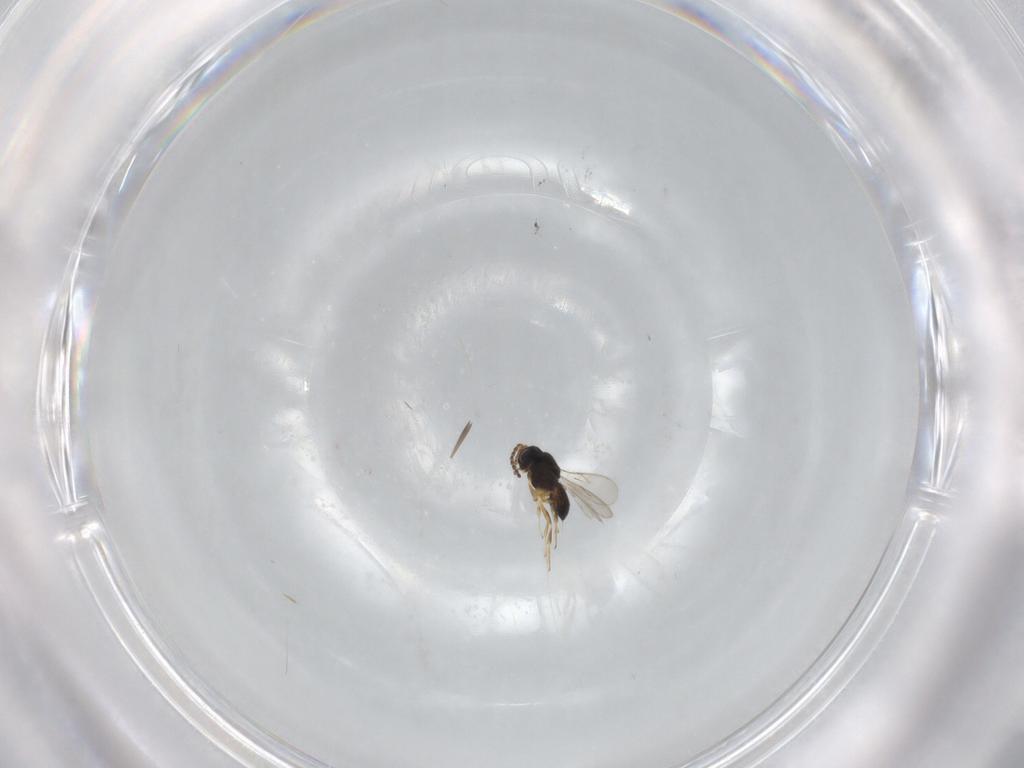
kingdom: Animalia
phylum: Arthropoda
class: Insecta
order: Hymenoptera
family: Scelionidae
